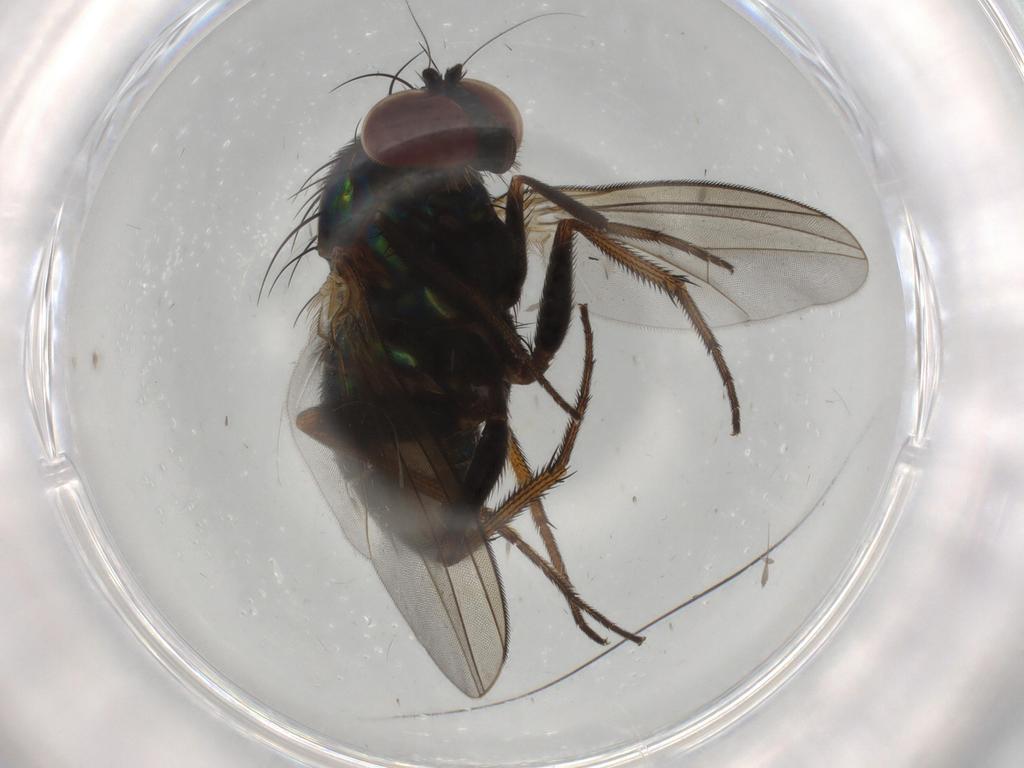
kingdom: Animalia
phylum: Arthropoda
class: Insecta
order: Diptera
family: Dolichopodidae
